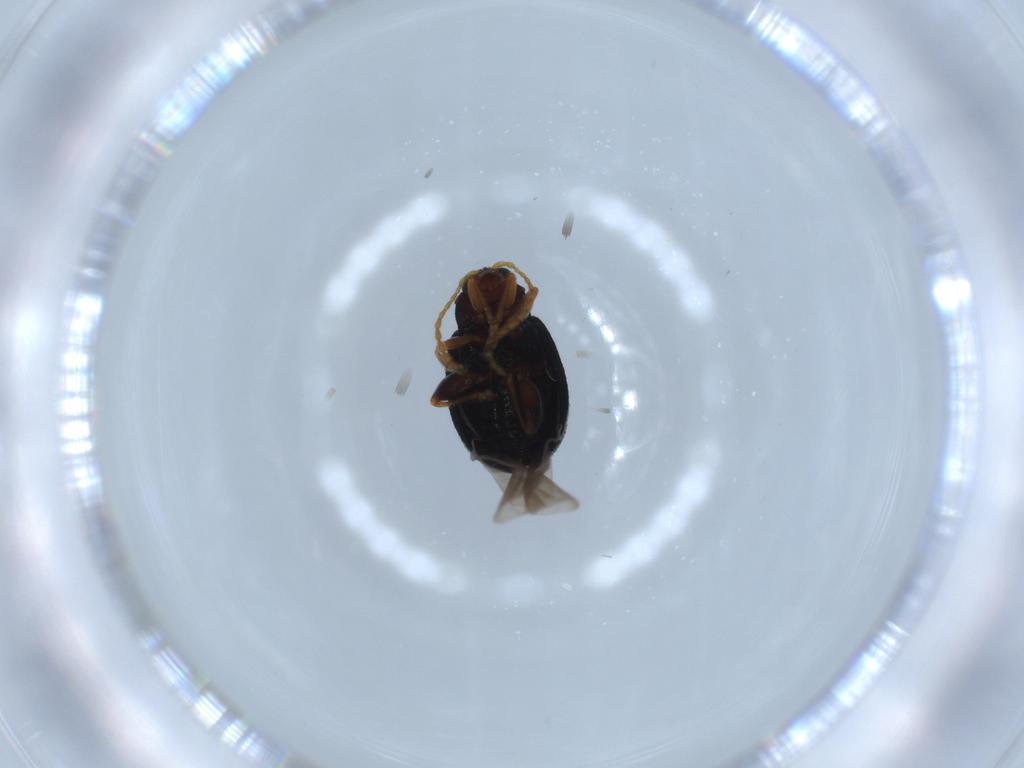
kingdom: Animalia
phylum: Arthropoda
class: Insecta
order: Coleoptera
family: Chrysomelidae
